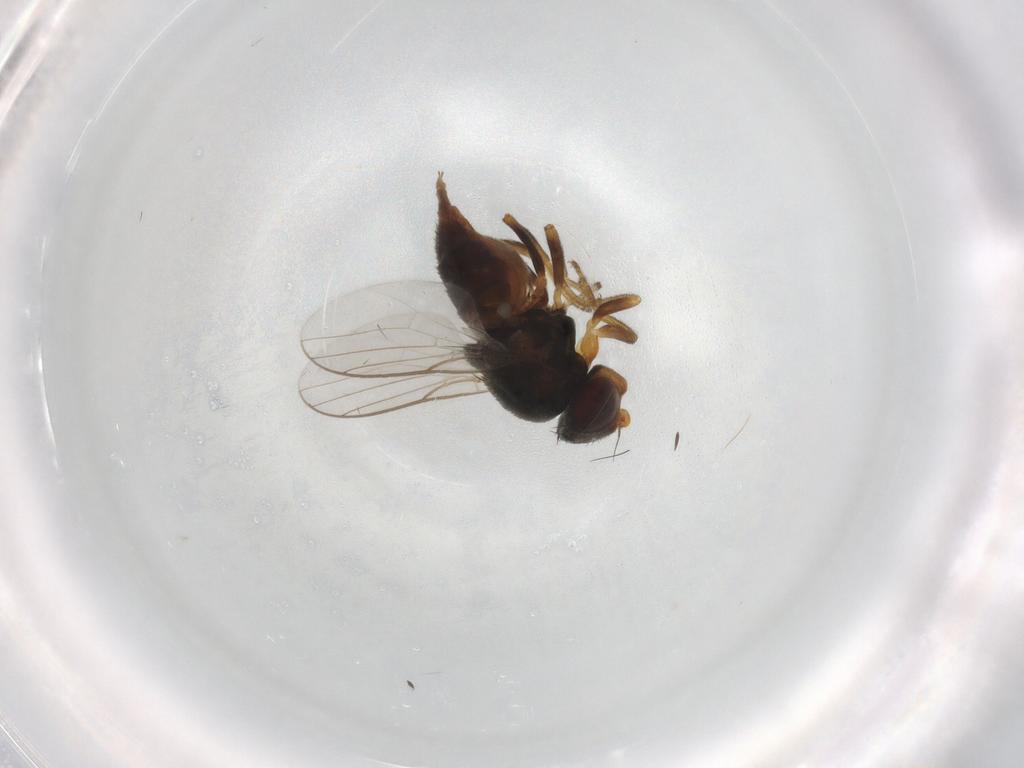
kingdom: Animalia
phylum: Arthropoda
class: Insecta
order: Diptera
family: Chloropidae
